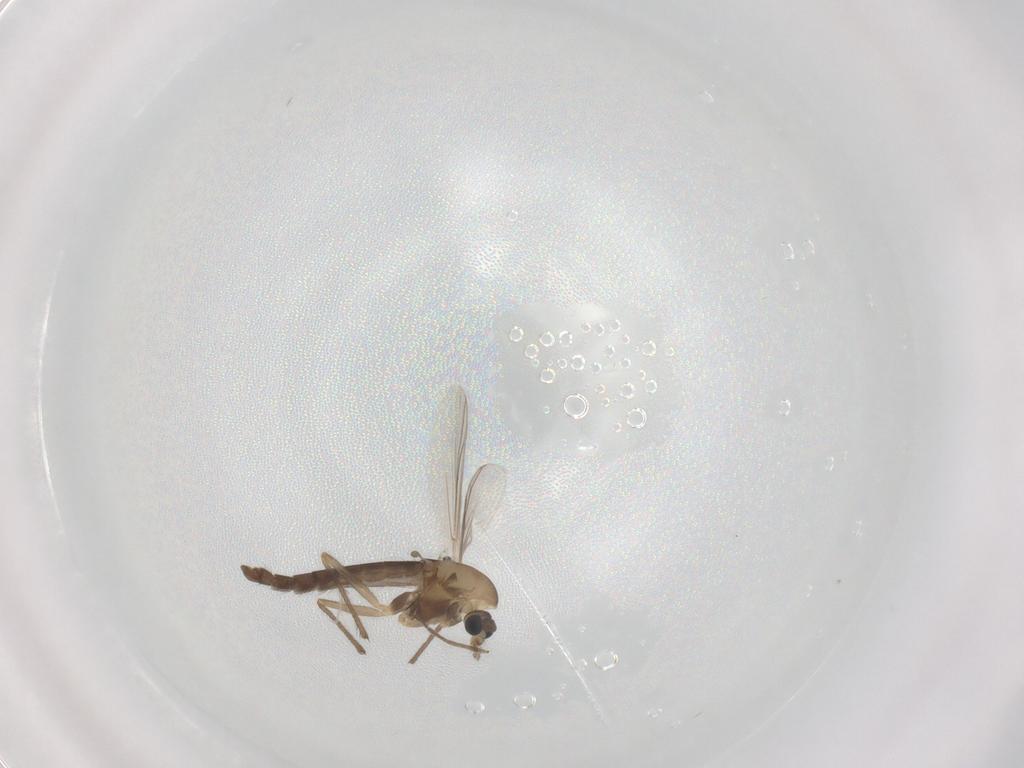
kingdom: Animalia
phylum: Arthropoda
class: Insecta
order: Diptera
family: Chironomidae
